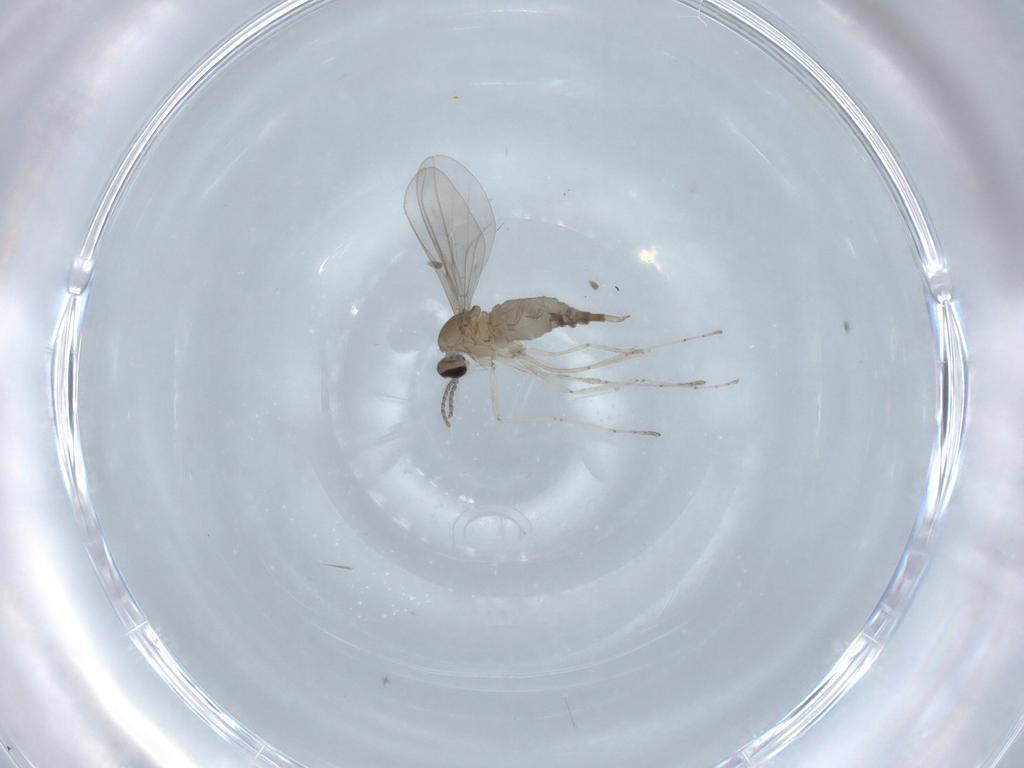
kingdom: Animalia
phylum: Arthropoda
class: Insecta
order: Diptera
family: Cecidomyiidae
